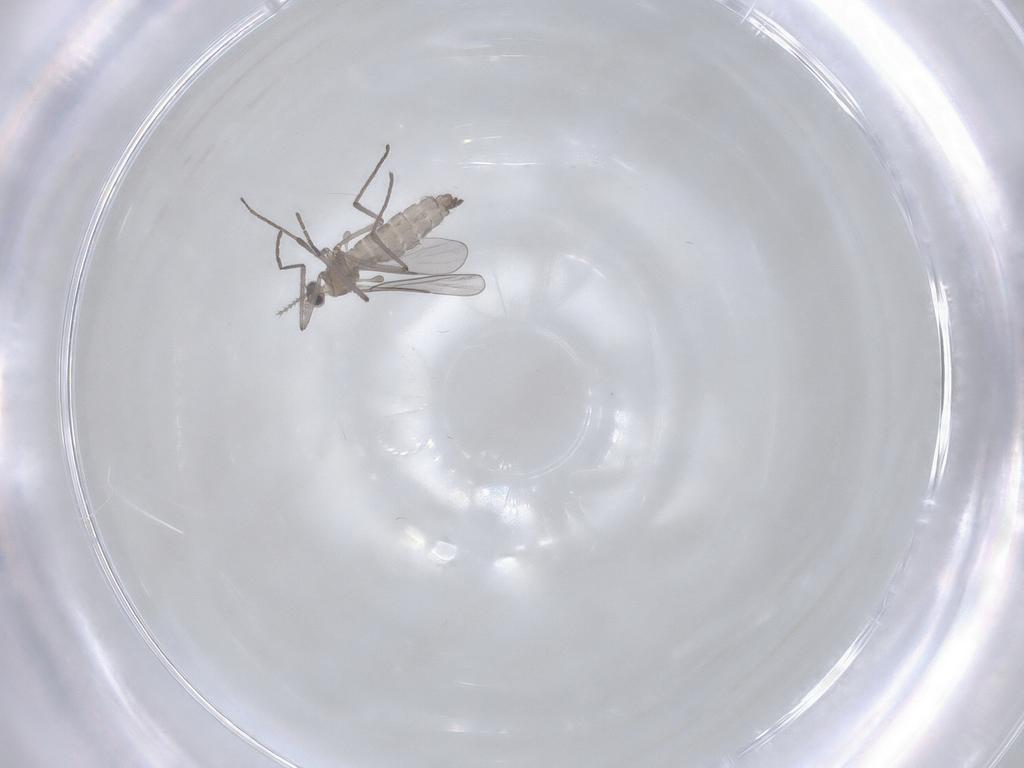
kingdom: Animalia
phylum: Arthropoda
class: Insecta
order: Diptera
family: Cecidomyiidae
